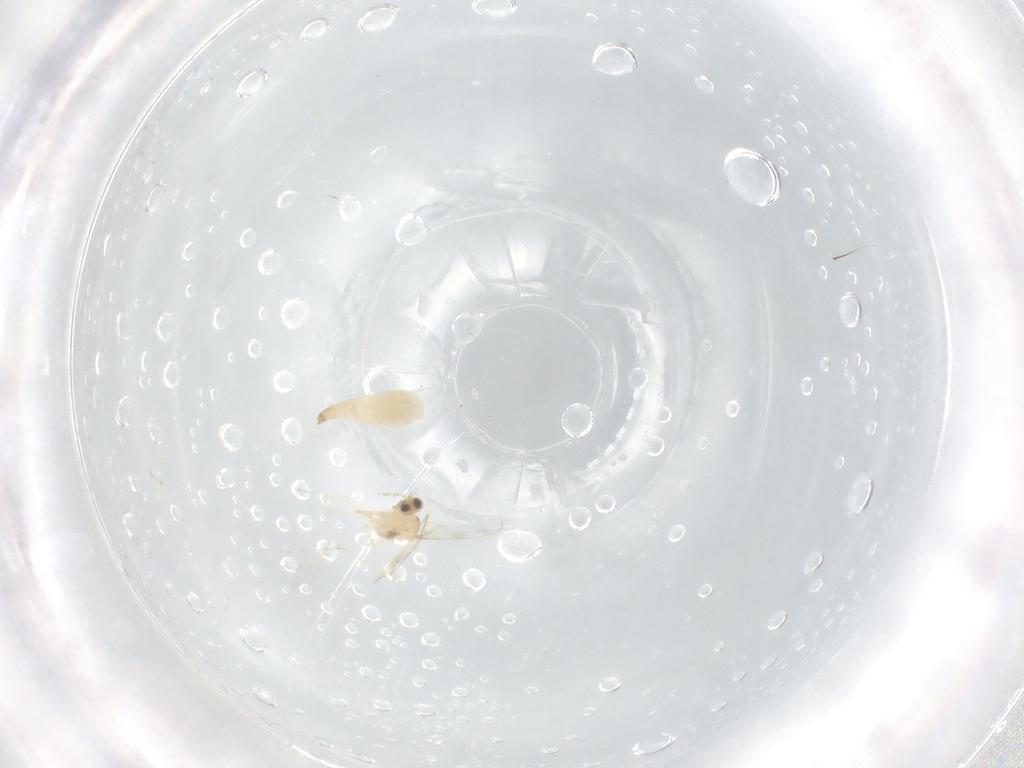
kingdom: Animalia
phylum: Arthropoda
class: Insecta
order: Diptera
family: Cecidomyiidae
